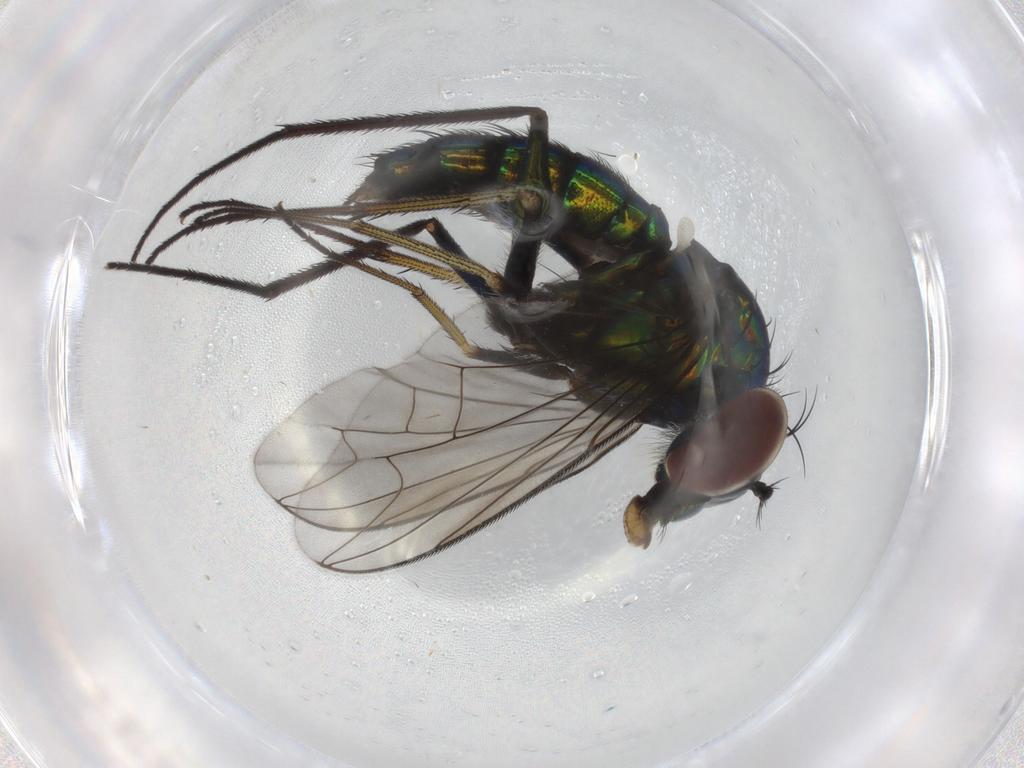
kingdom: Animalia
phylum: Arthropoda
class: Insecta
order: Diptera
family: Dolichopodidae
